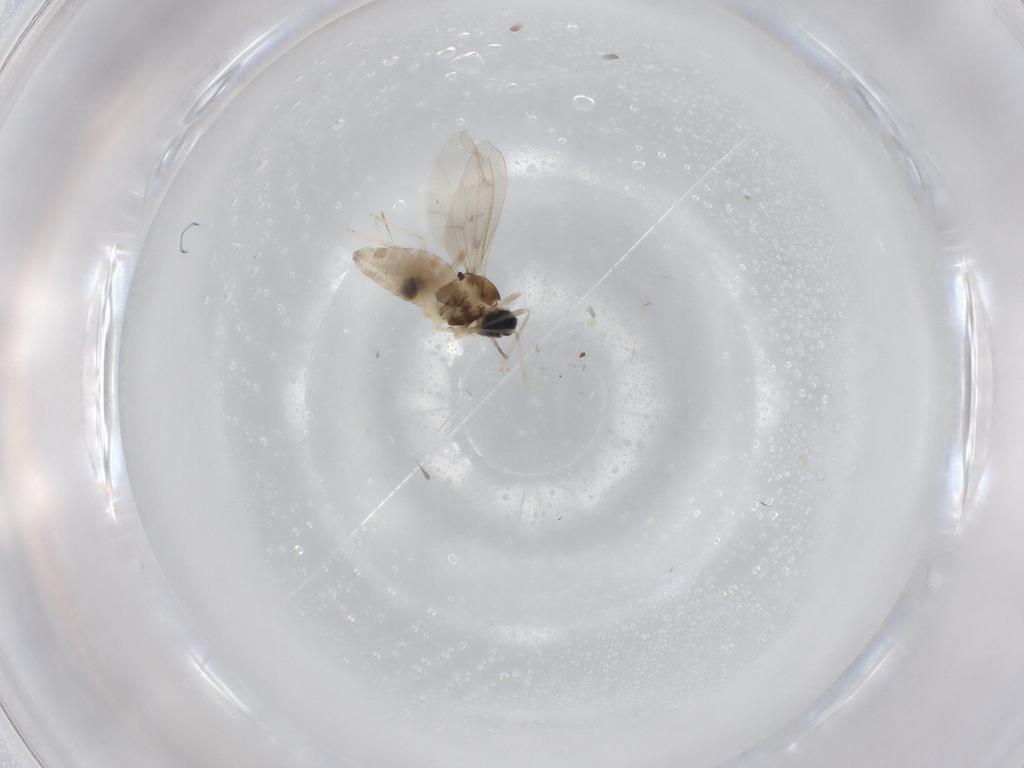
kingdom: Animalia
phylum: Arthropoda
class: Insecta
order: Diptera
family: Cecidomyiidae
